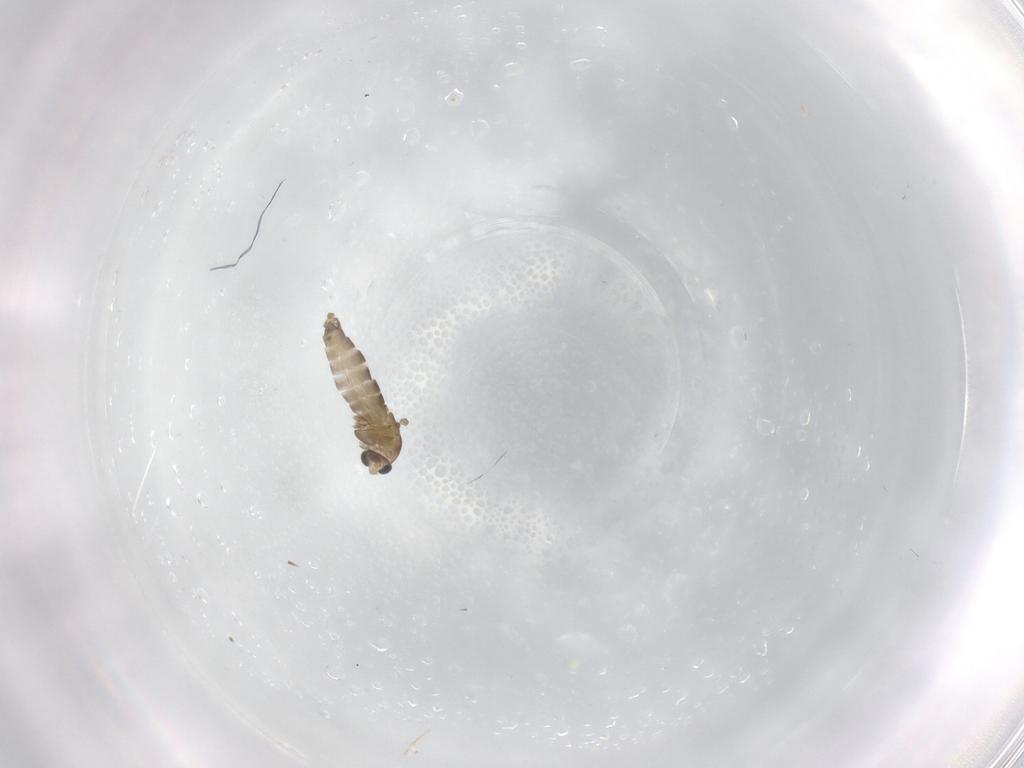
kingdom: Animalia
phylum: Arthropoda
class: Insecta
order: Diptera
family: Chironomidae
